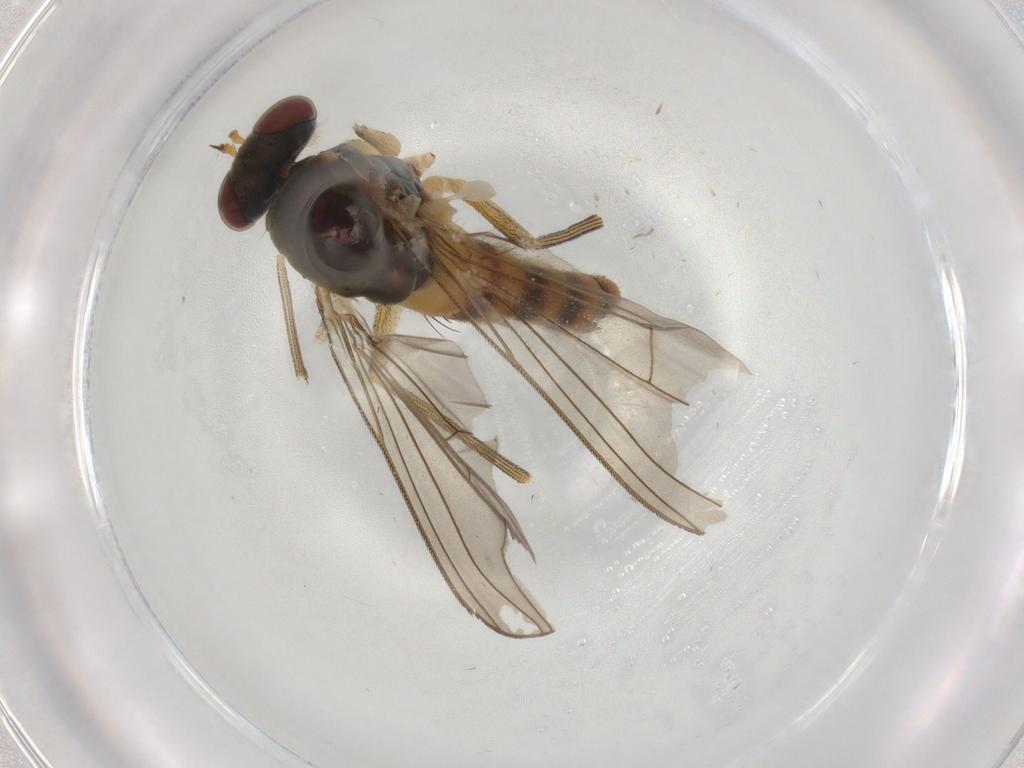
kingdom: Animalia
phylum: Arthropoda
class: Insecta
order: Diptera
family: Dolichopodidae
